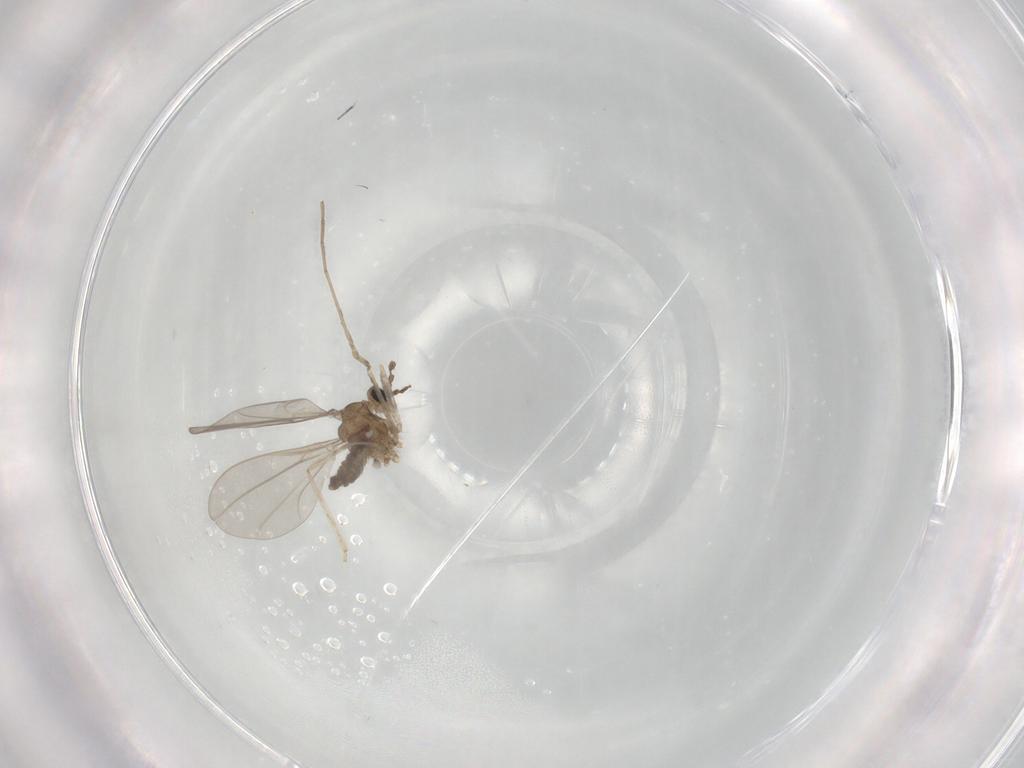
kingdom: Animalia
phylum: Arthropoda
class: Insecta
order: Diptera
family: Cecidomyiidae
